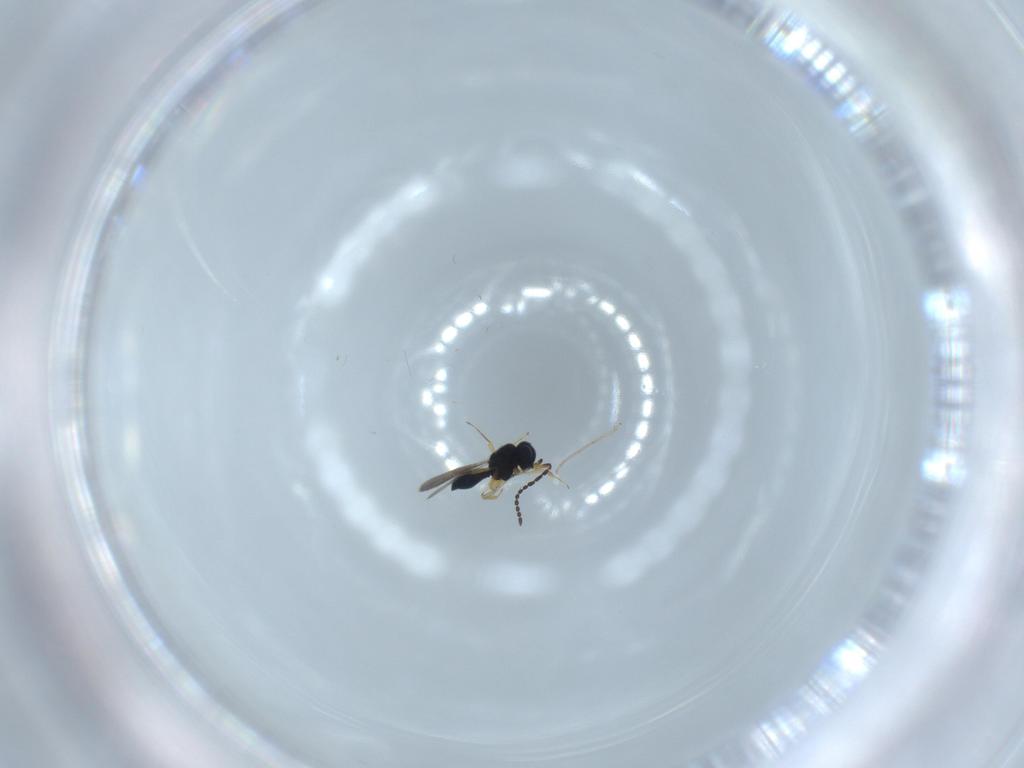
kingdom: Animalia
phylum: Arthropoda
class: Insecta
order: Hymenoptera
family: Scelionidae
